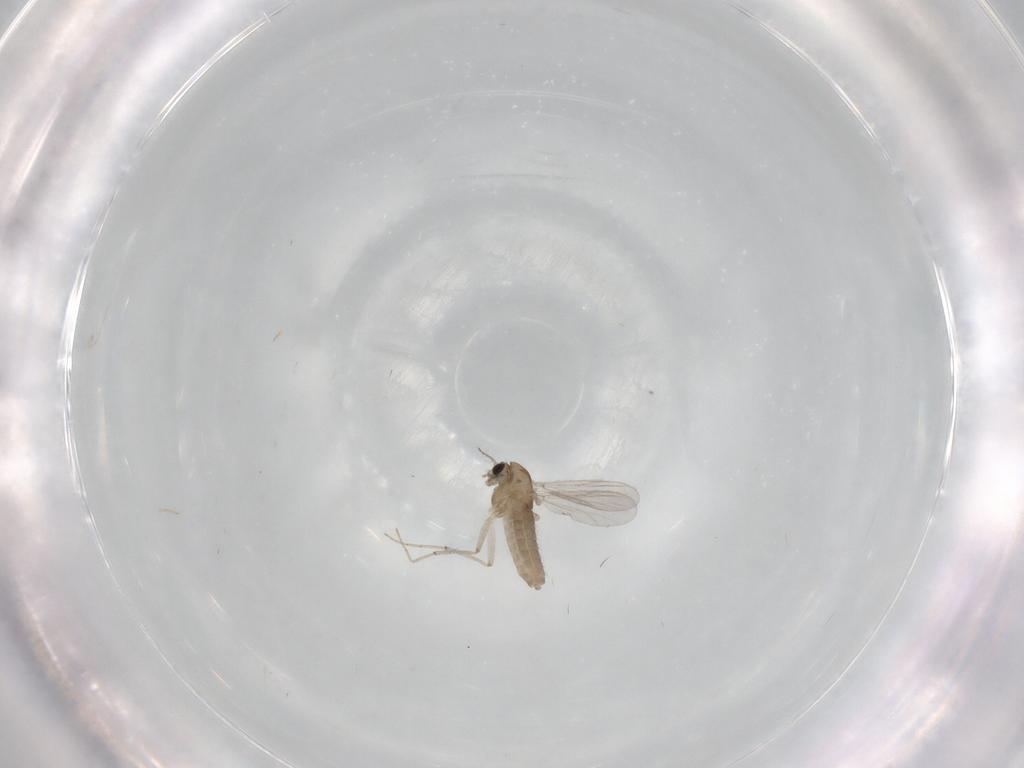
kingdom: Animalia
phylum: Arthropoda
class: Insecta
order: Diptera
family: Chironomidae
